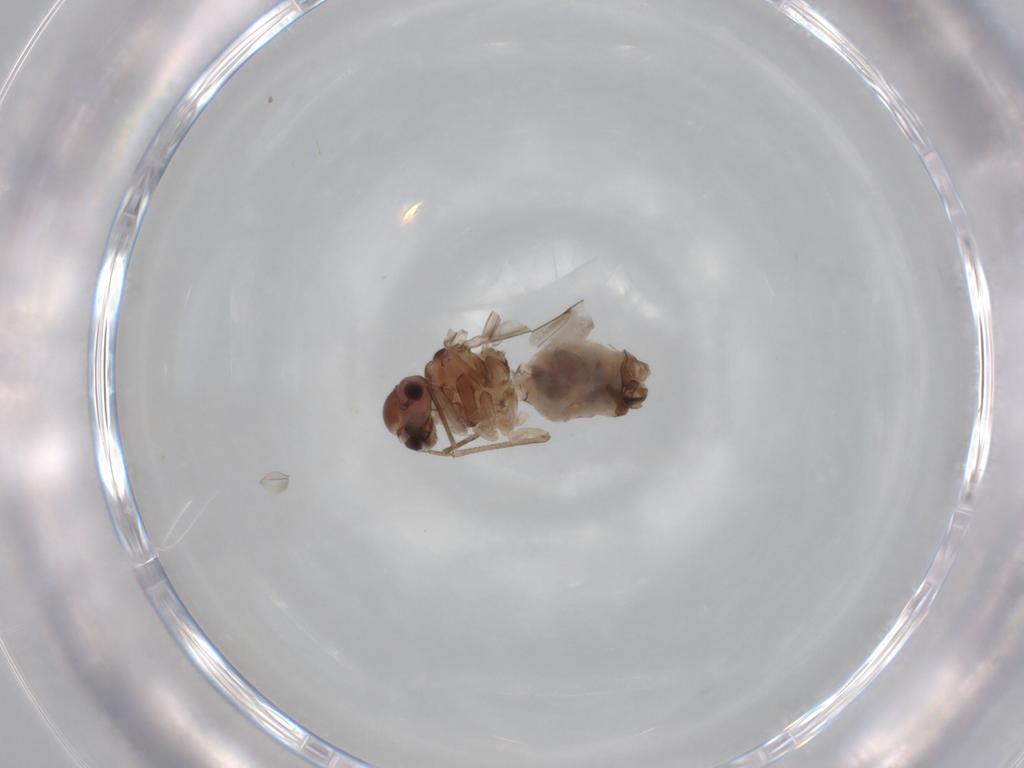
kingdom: Animalia
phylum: Arthropoda
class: Insecta
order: Psocodea
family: Peripsocidae
